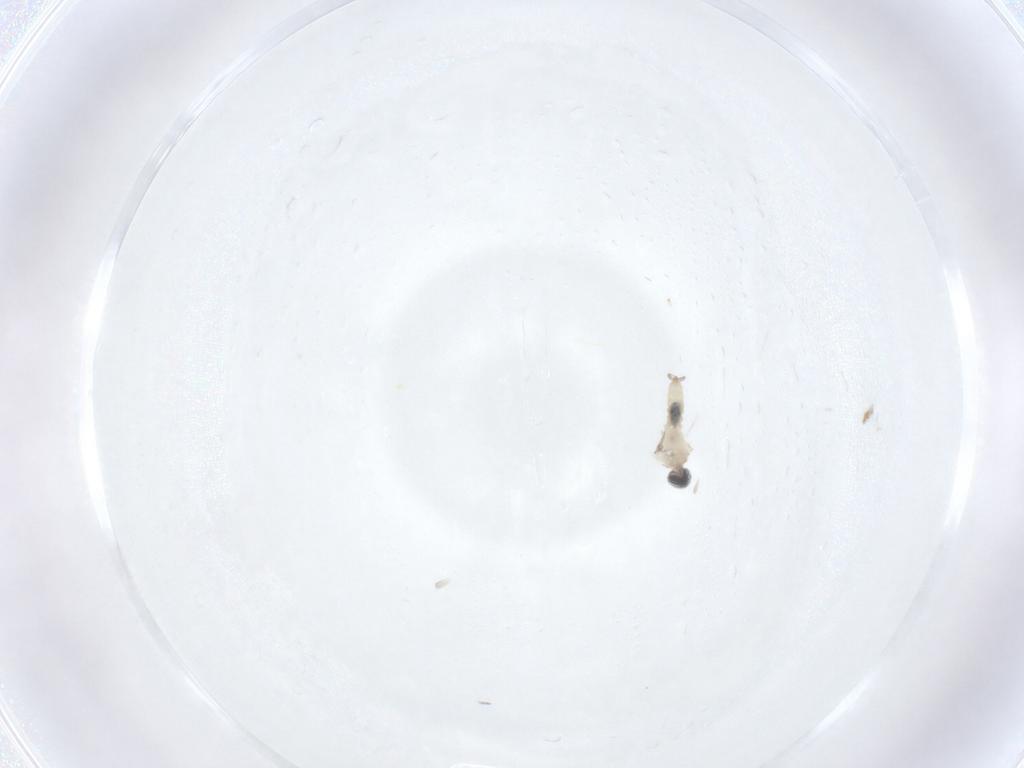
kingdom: Animalia
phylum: Arthropoda
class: Insecta
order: Diptera
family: Cecidomyiidae
